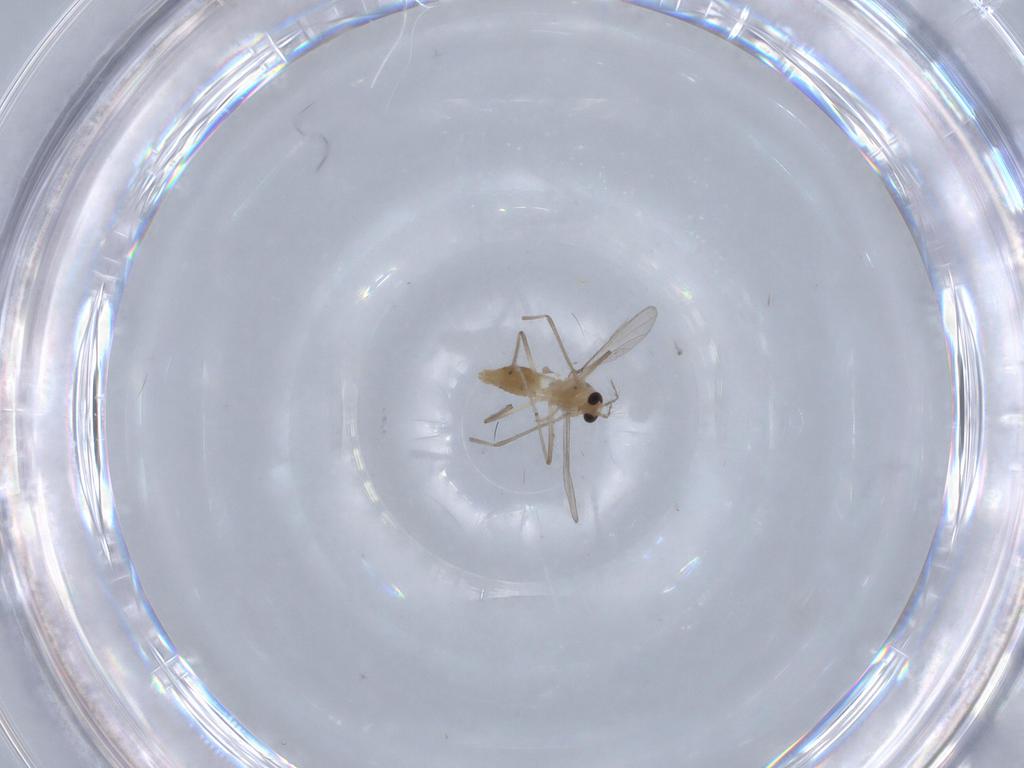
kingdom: Animalia
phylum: Arthropoda
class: Insecta
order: Diptera
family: Chironomidae
